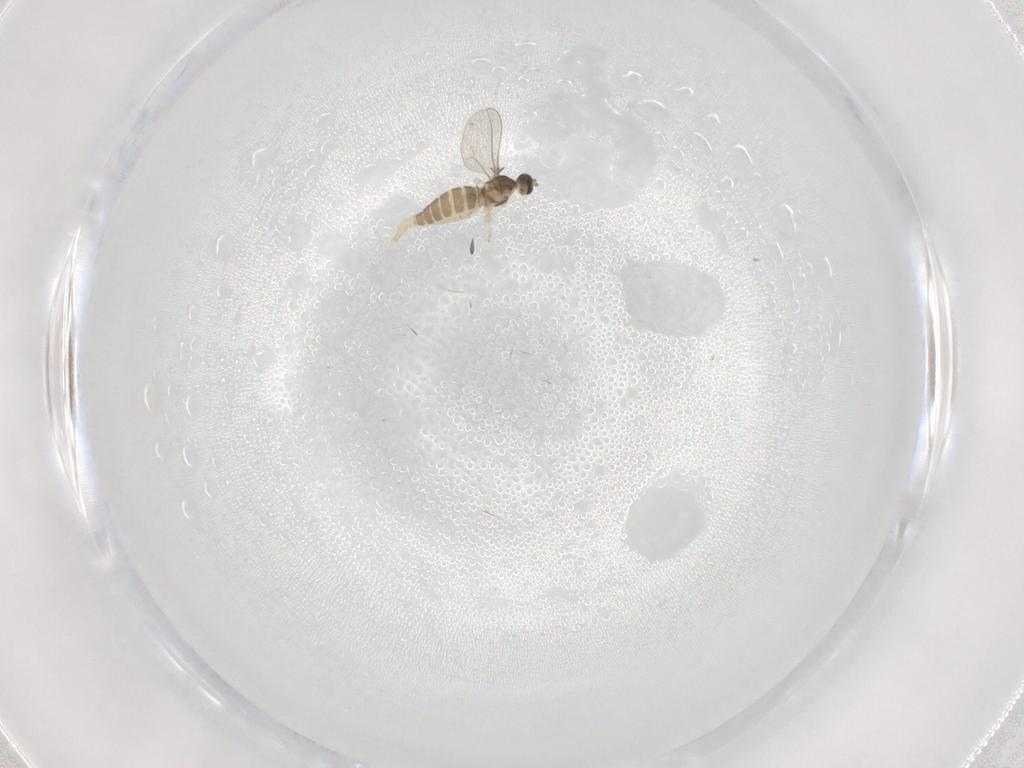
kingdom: Animalia
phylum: Arthropoda
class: Insecta
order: Diptera
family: Cecidomyiidae
